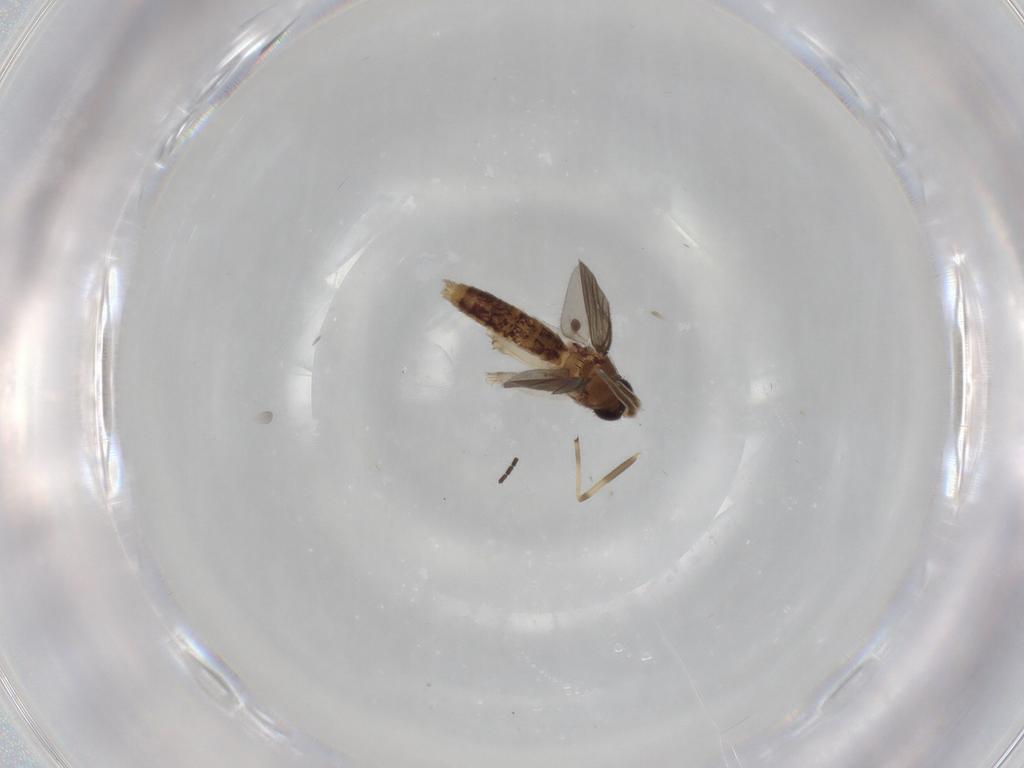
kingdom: Animalia
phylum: Arthropoda
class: Insecta
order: Diptera
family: Mycetophilidae
